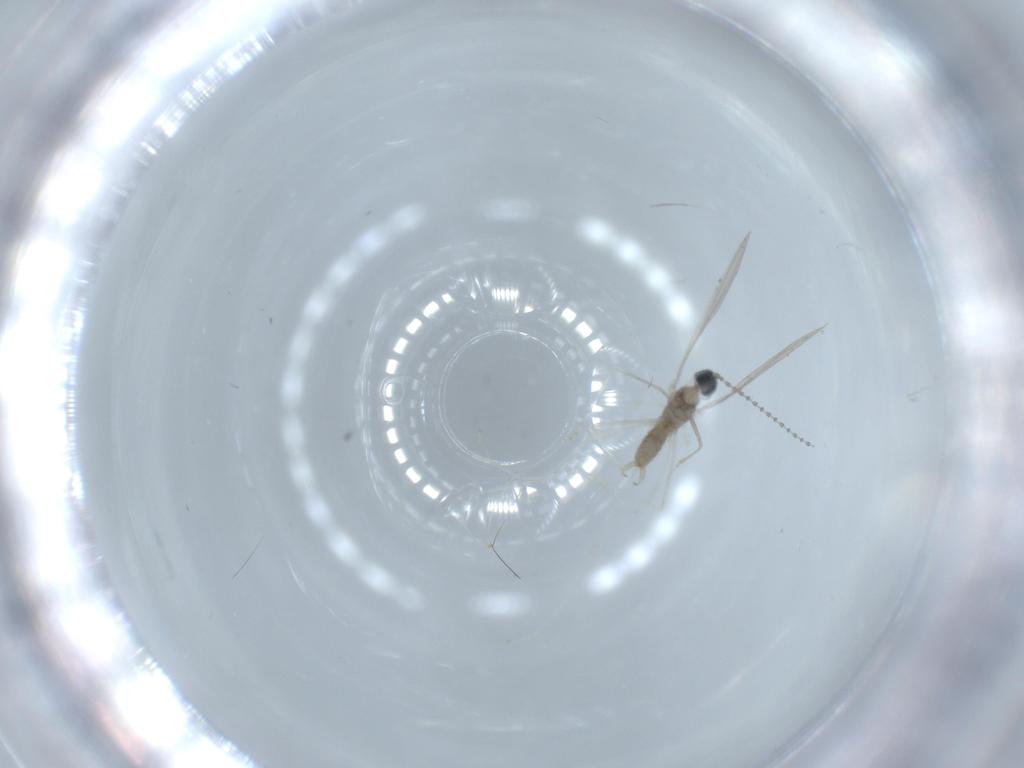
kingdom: Animalia
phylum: Arthropoda
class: Insecta
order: Diptera
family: Cecidomyiidae
